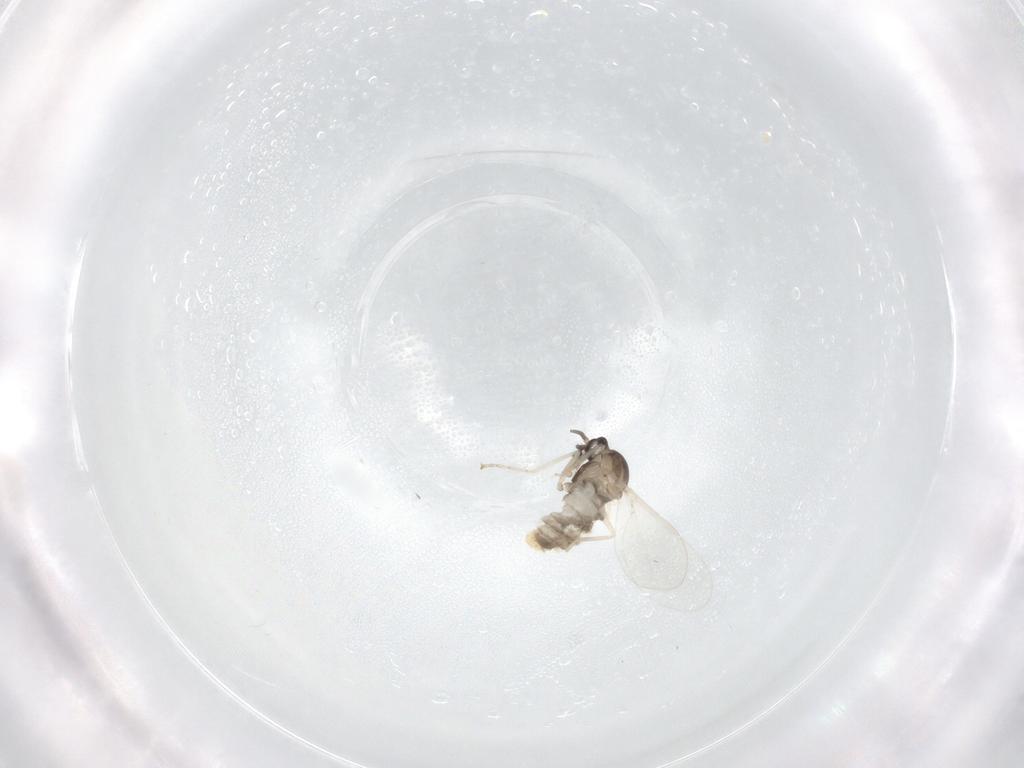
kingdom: Animalia
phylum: Arthropoda
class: Insecta
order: Diptera
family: Cecidomyiidae
